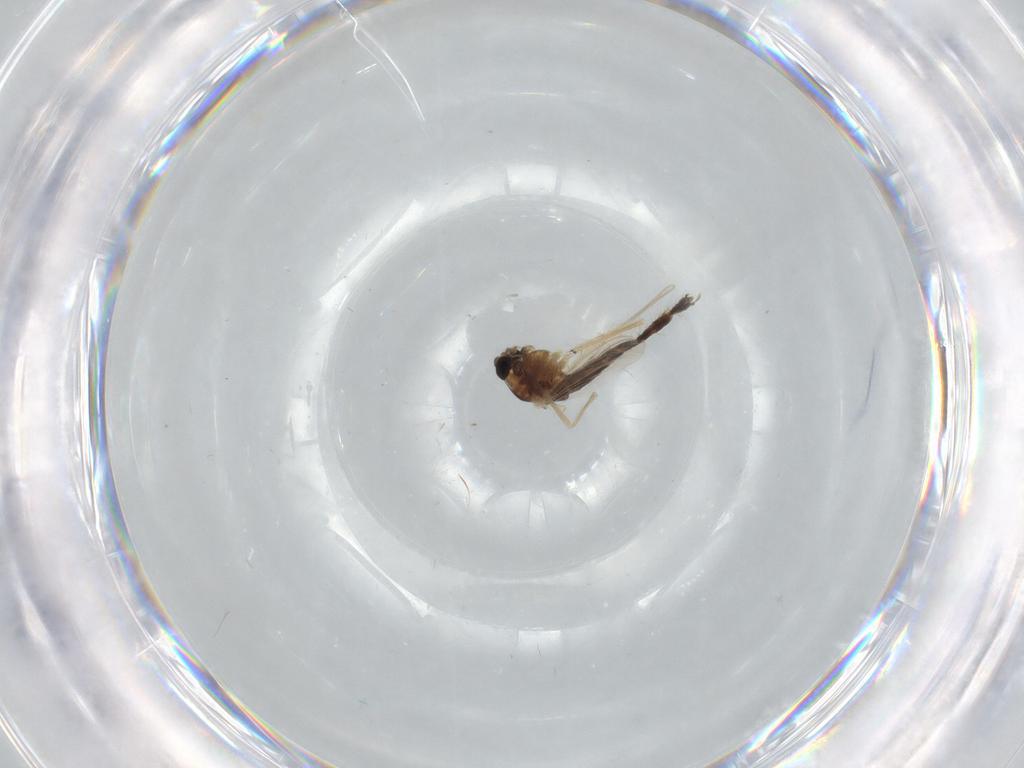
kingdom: Animalia
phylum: Arthropoda
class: Insecta
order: Diptera
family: Chironomidae
